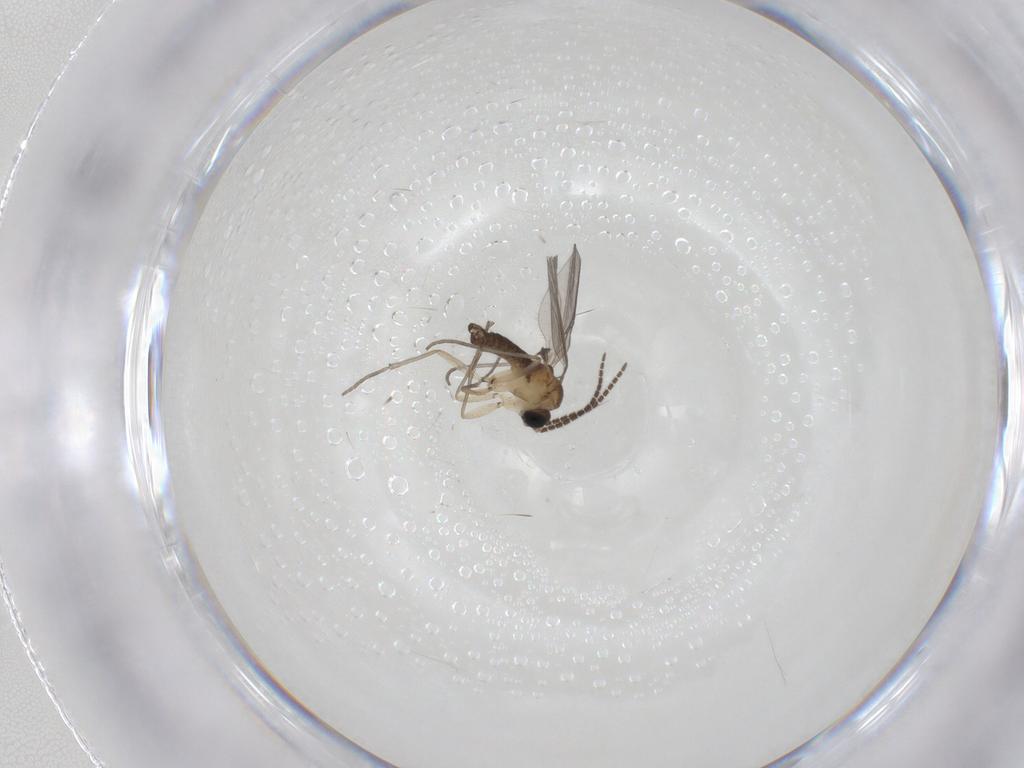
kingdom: Animalia
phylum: Arthropoda
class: Insecta
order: Diptera
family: Sciaridae
